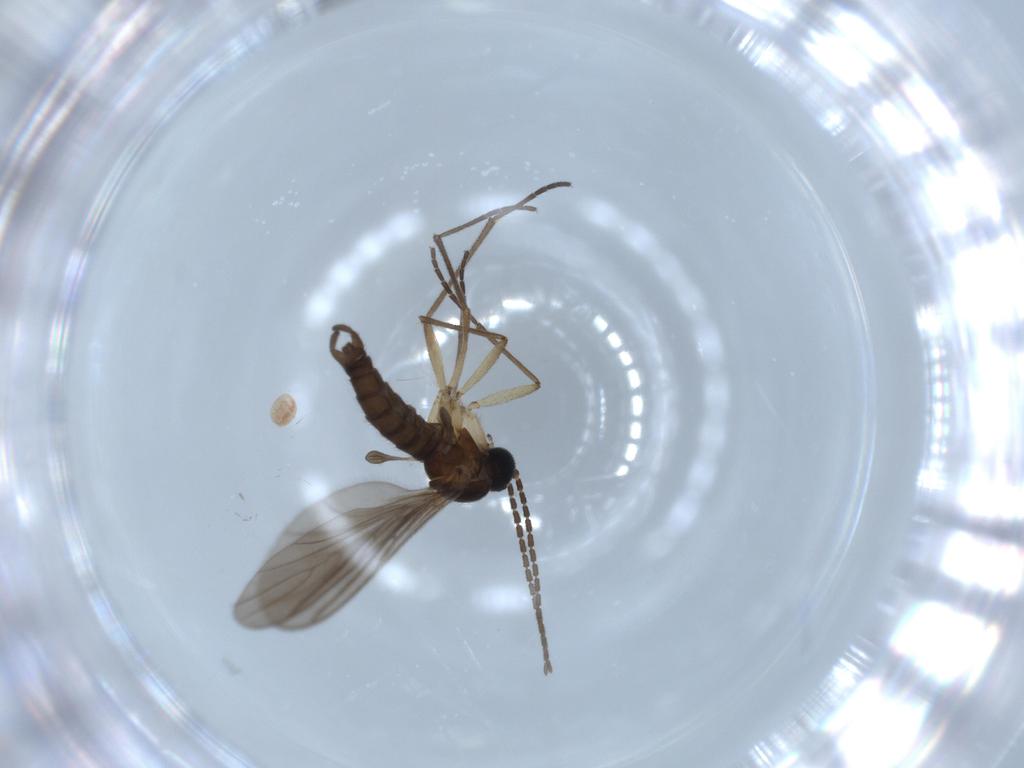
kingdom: Animalia
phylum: Arthropoda
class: Insecta
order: Diptera
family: Sciaridae
